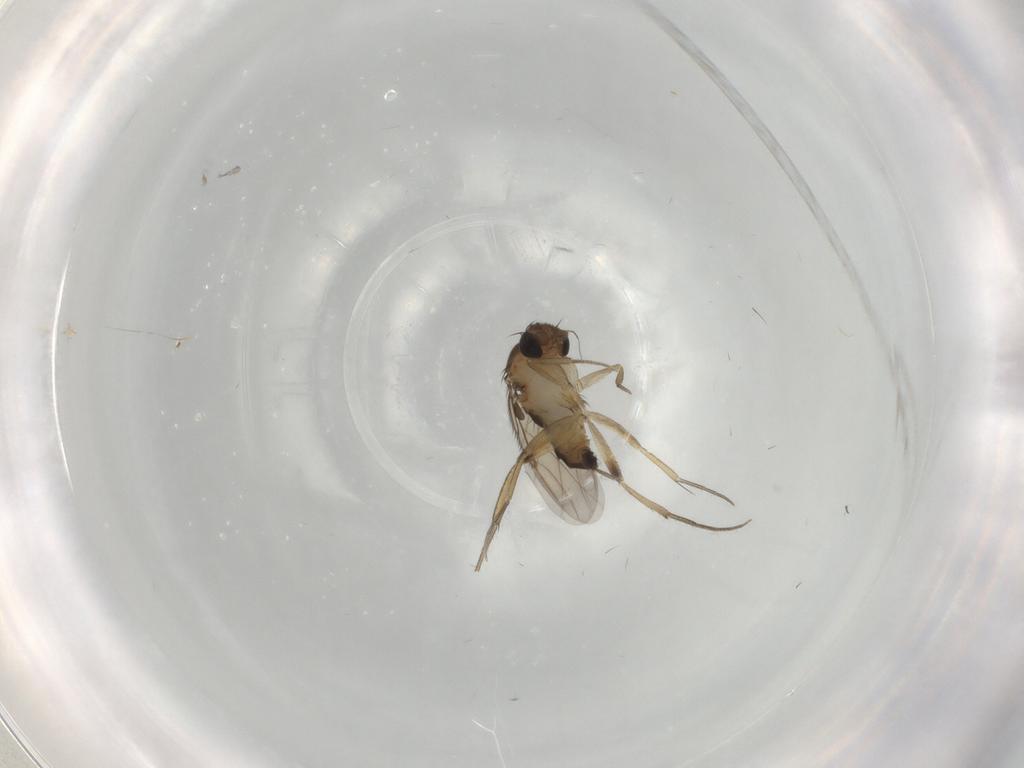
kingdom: Animalia
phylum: Arthropoda
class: Insecta
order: Diptera
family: Phoridae
